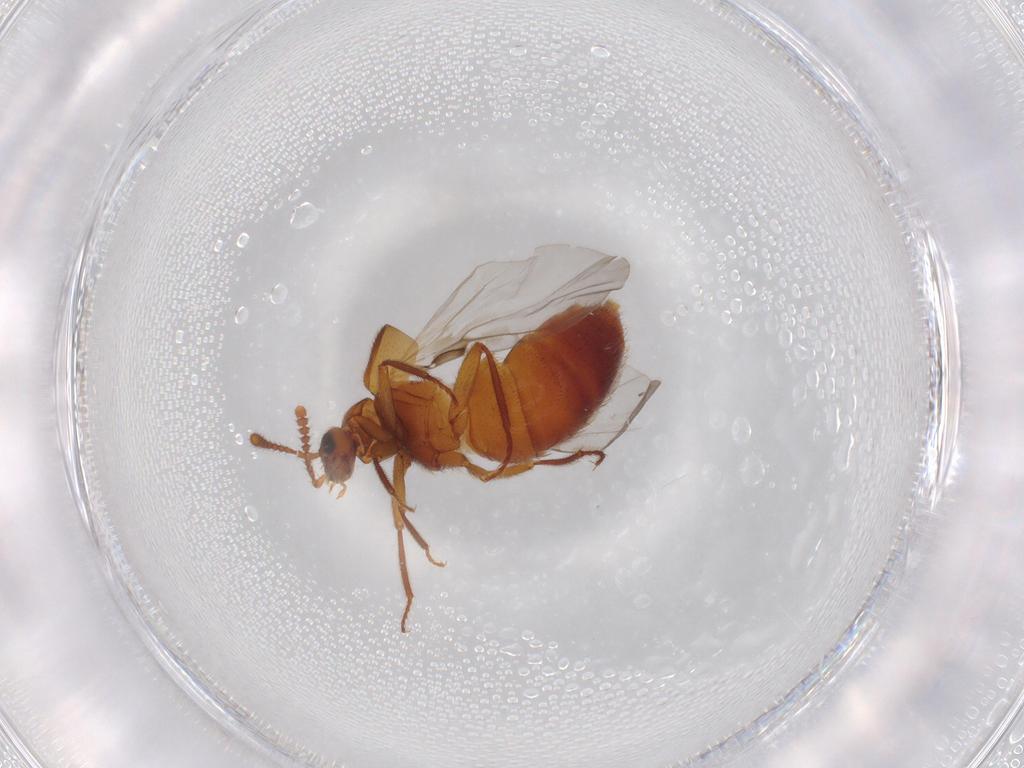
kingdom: Animalia
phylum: Arthropoda
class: Insecta
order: Coleoptera
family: Staphylinidae
